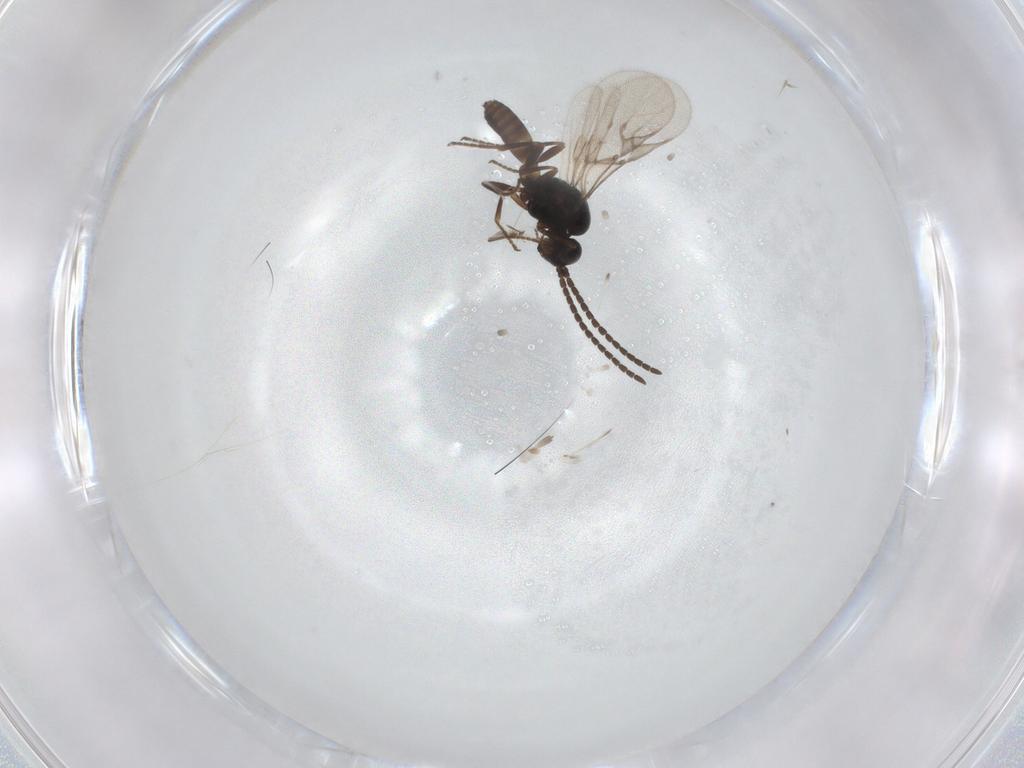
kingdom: Animalia
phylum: Arthropoda
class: Insecta
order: Hymenoptera
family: Braconidae
